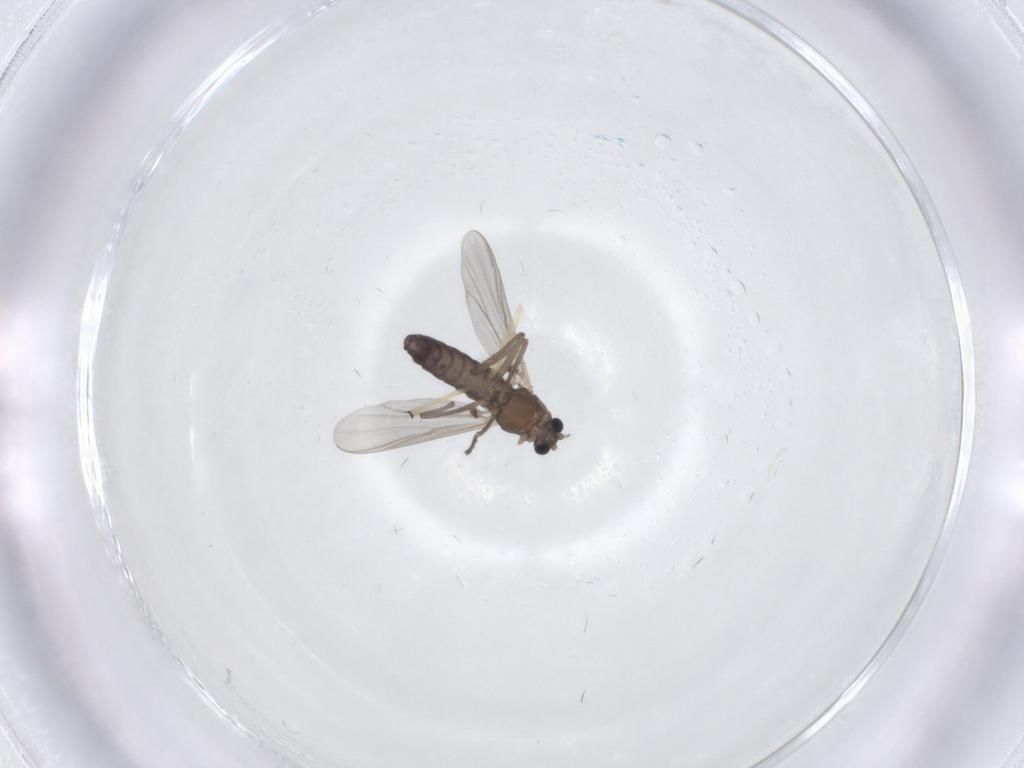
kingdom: Animalia
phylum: Arthropoda
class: Insecta
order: Diptera
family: Chironomidae
